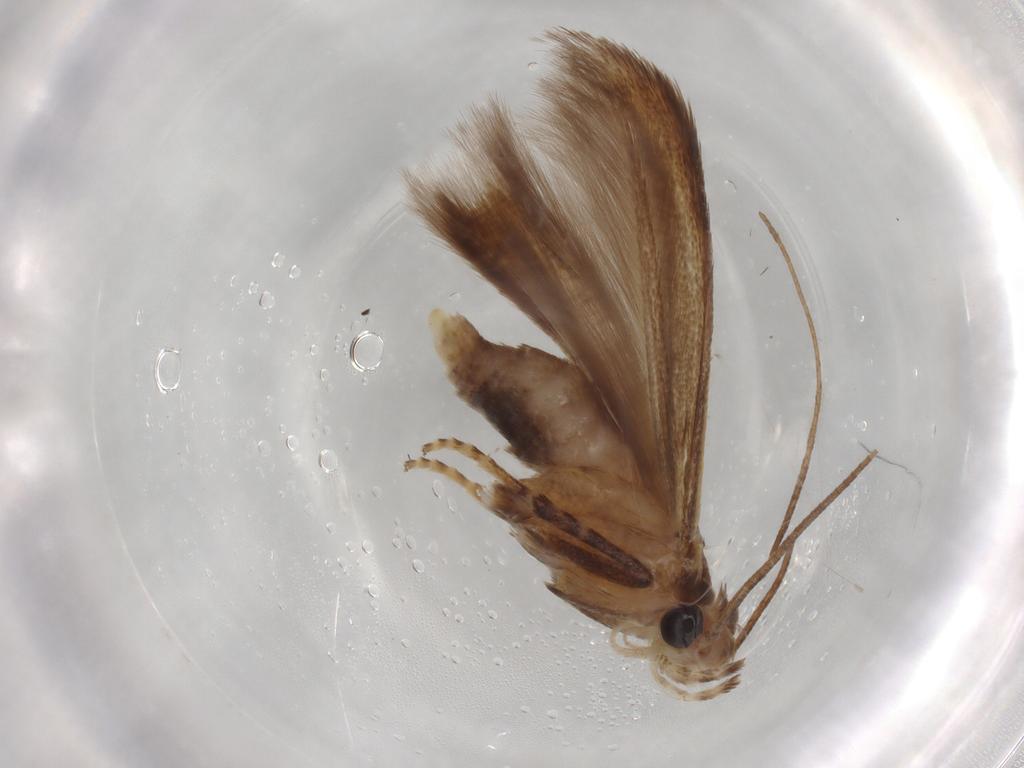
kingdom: Animalia
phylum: Arthropoda
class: Insecta
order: Lepidoptera
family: Batrachedridae
